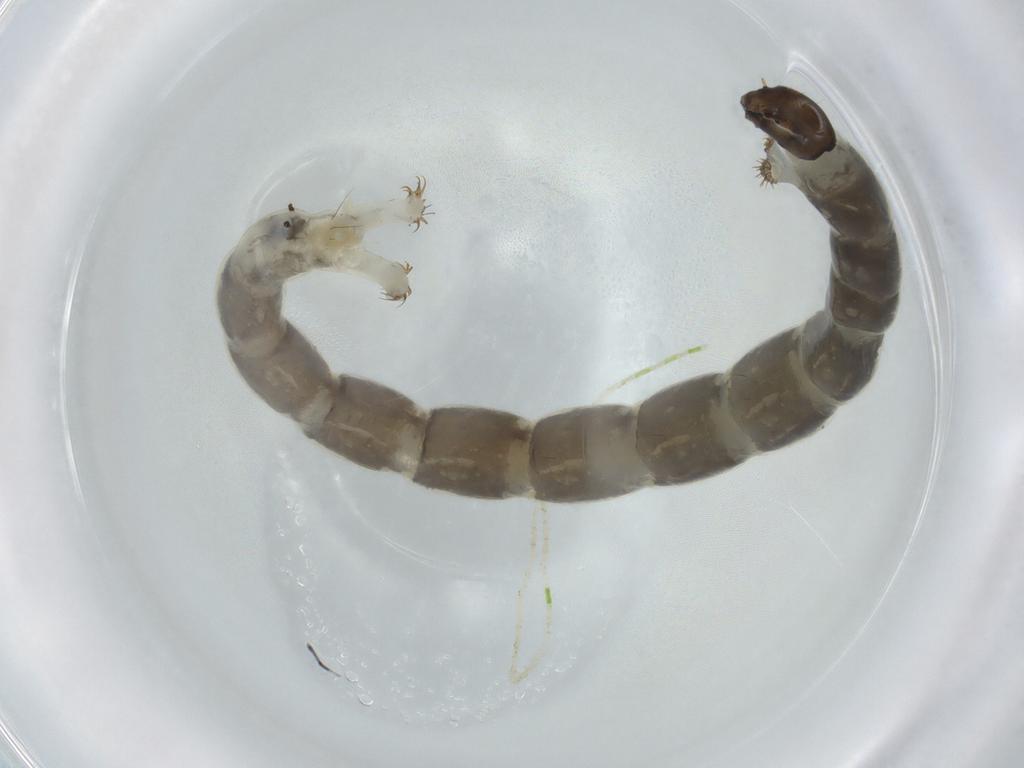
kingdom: Animalia
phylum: Arthropoda
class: Insecta
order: Diptera
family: Chironomidae
